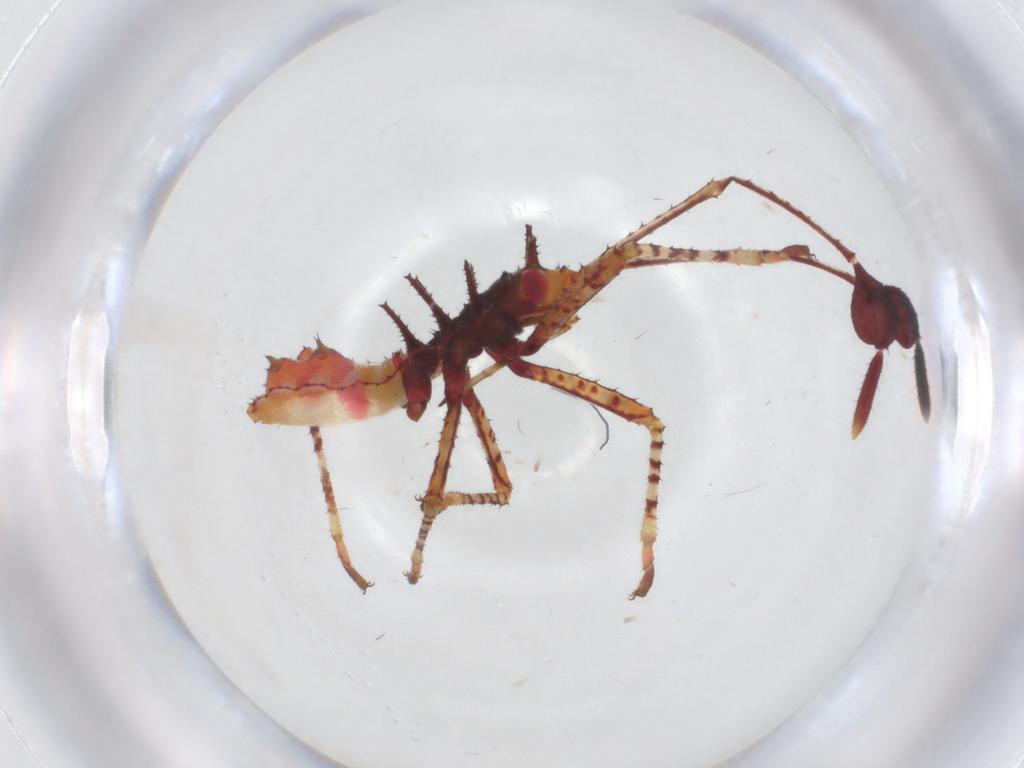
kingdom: Animalia
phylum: Arthropoda
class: Insecta
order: Hemiptera
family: Coreidae
